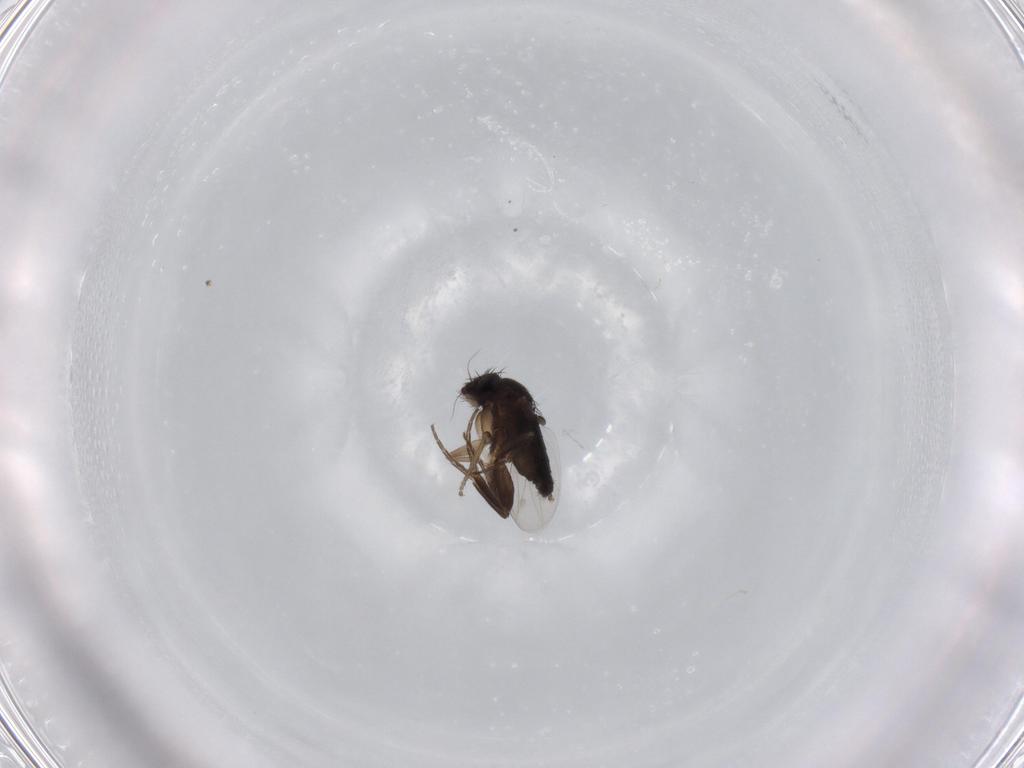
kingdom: Animalia
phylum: Arthropoda
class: Insecta
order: Diptera
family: Phoridae
